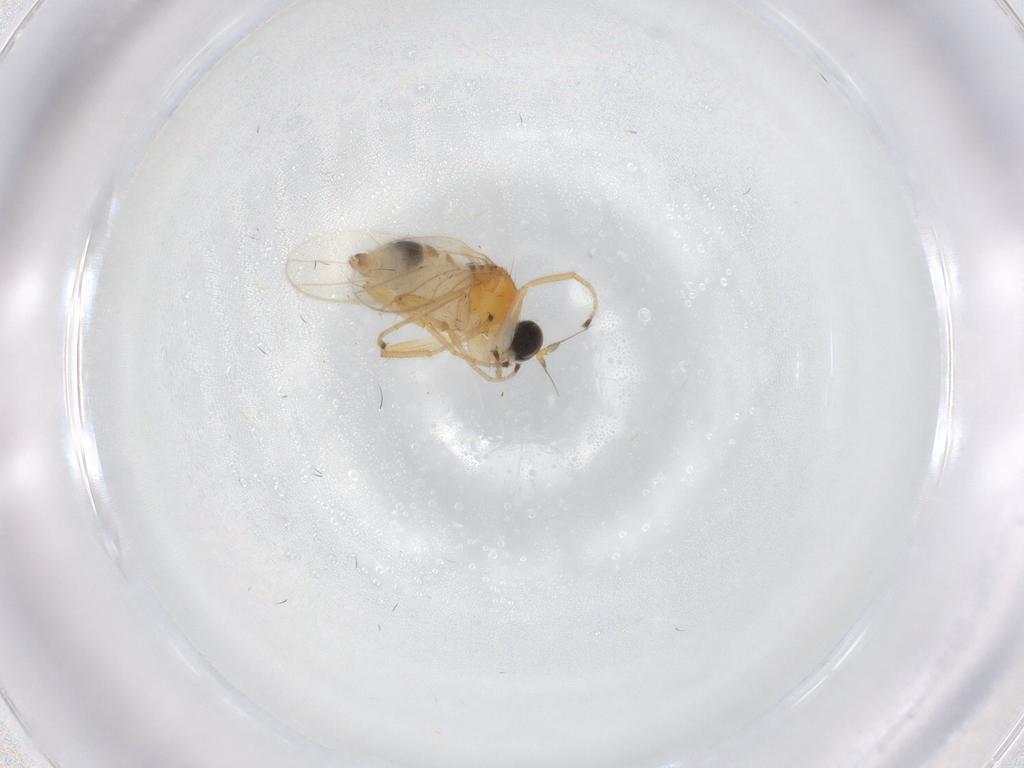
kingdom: Animalia
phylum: Arthropoda
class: Insecta
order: Diptera
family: Hybotidae
